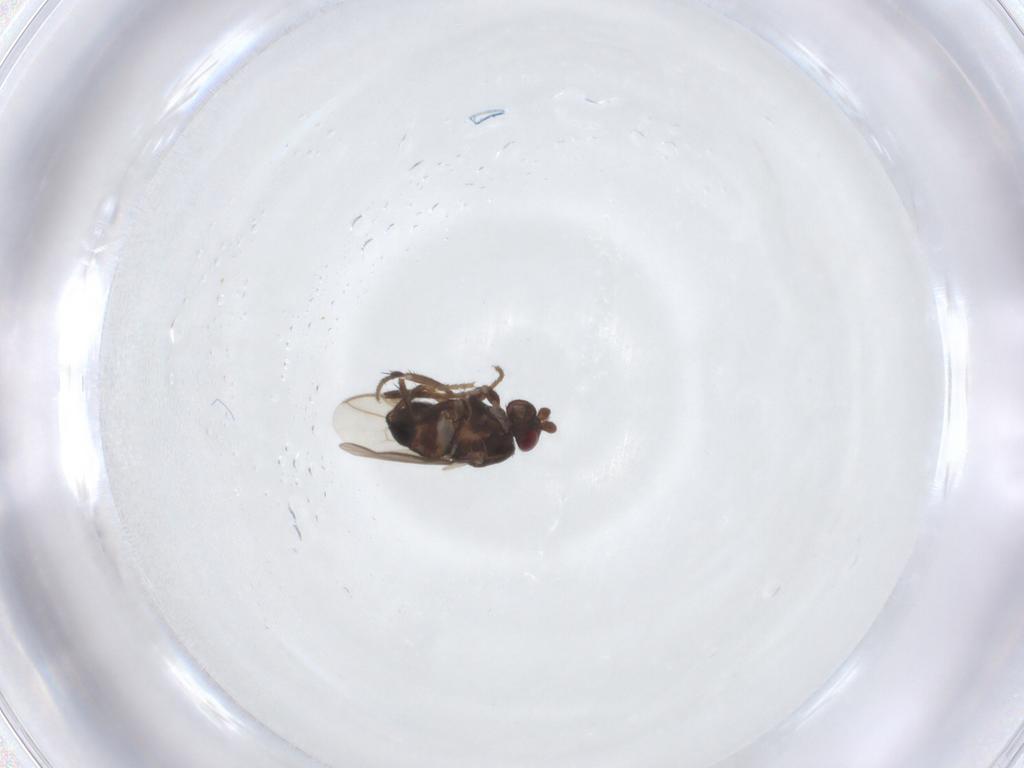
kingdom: Animalia
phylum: Arthropoda
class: Insecta
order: Diptera
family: Sphaeroceridae
